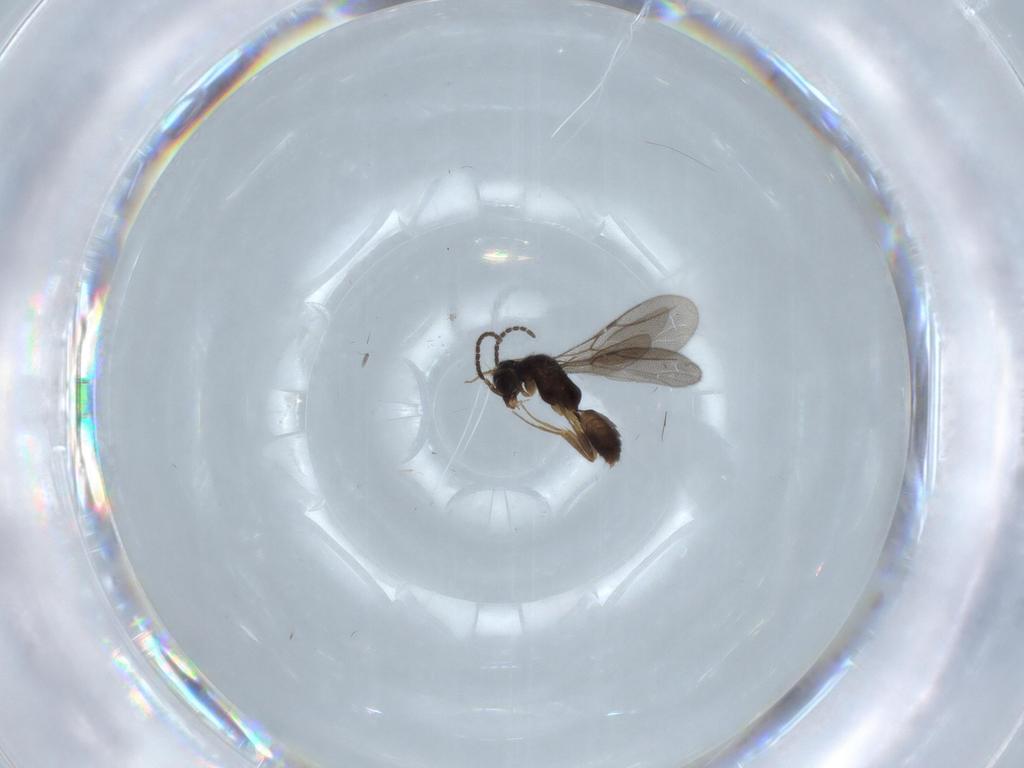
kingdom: Animalia
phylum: Arthropoda
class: Insecta
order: Hymenoptera
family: Bethylidae
